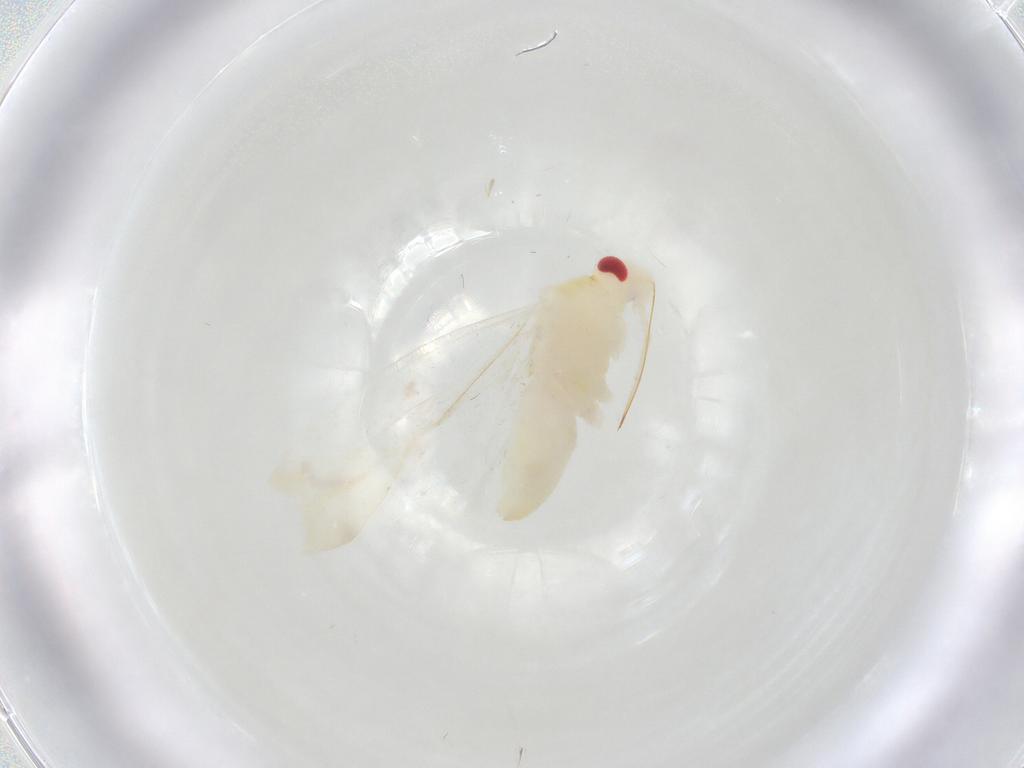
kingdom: Animalia
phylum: Arthropoda
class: Insecta
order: Hemiptera
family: Miridae
